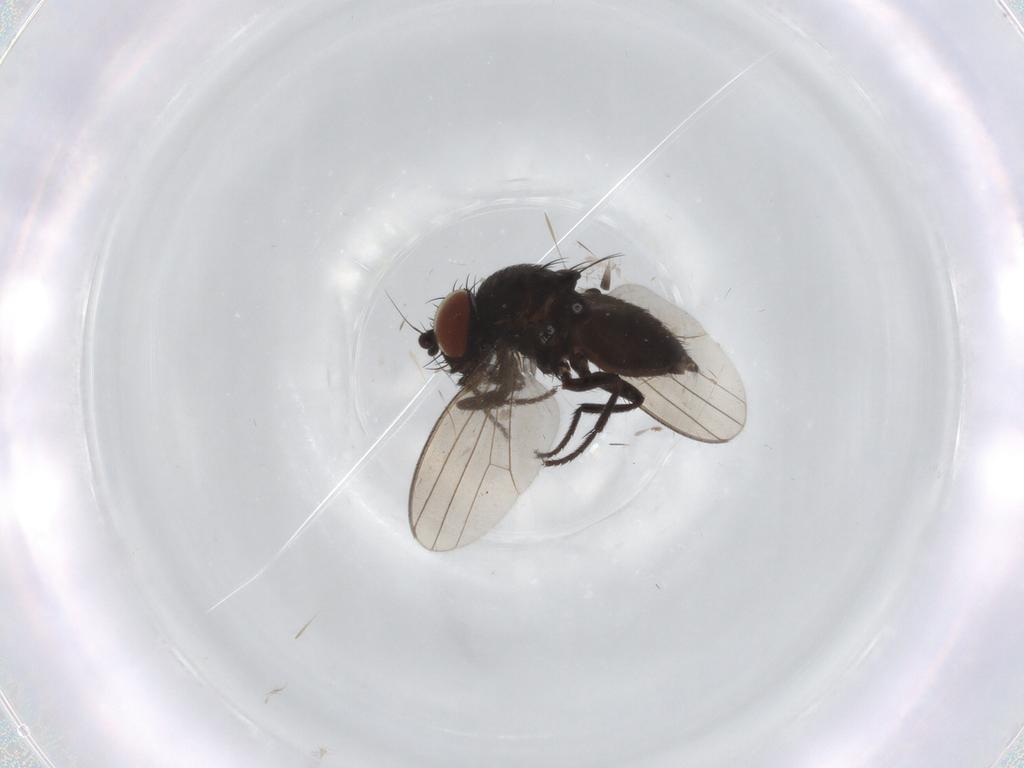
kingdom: Animalia
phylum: Arthropoda
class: Insecta
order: Diptera
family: Milichiidae
